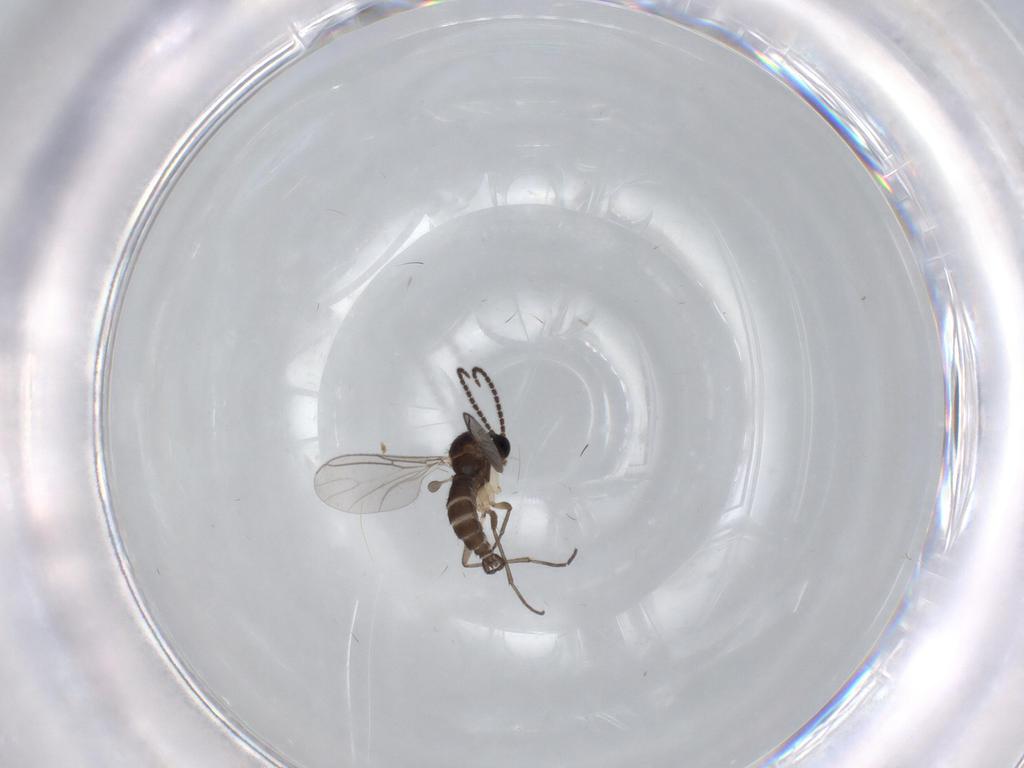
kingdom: Animalia
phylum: Arthropoda
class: Insecta
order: Diptera
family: Sciaridae
